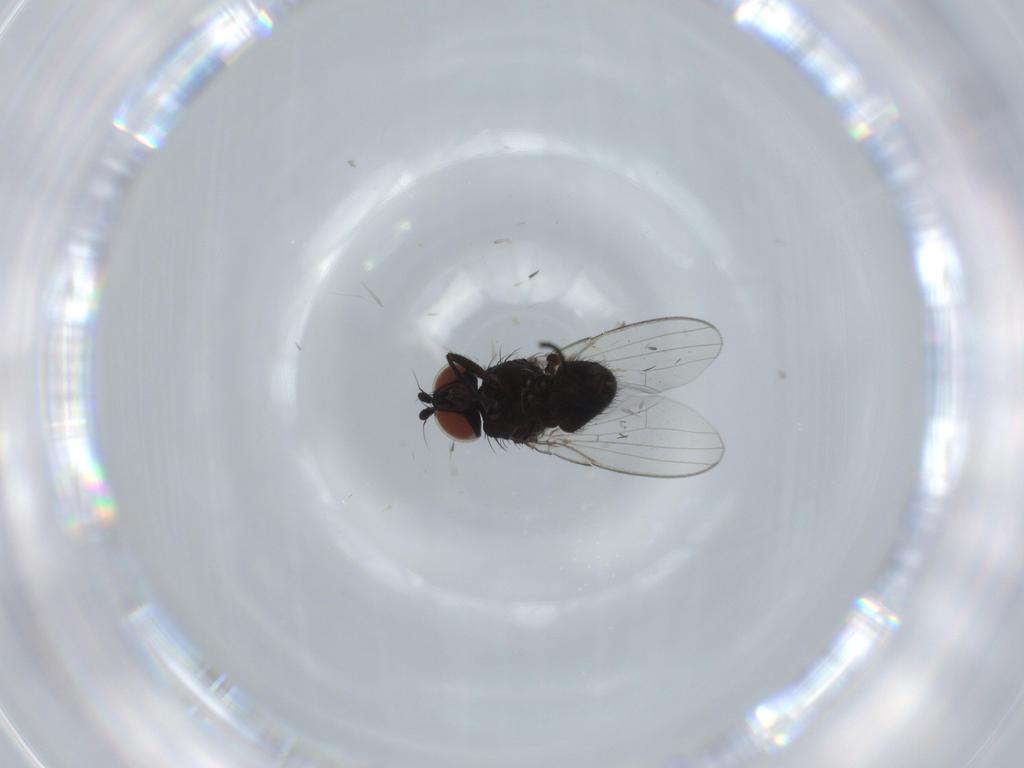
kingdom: Animalia
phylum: Arthropoda
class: Insecta
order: Diptera
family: Milichiidae
